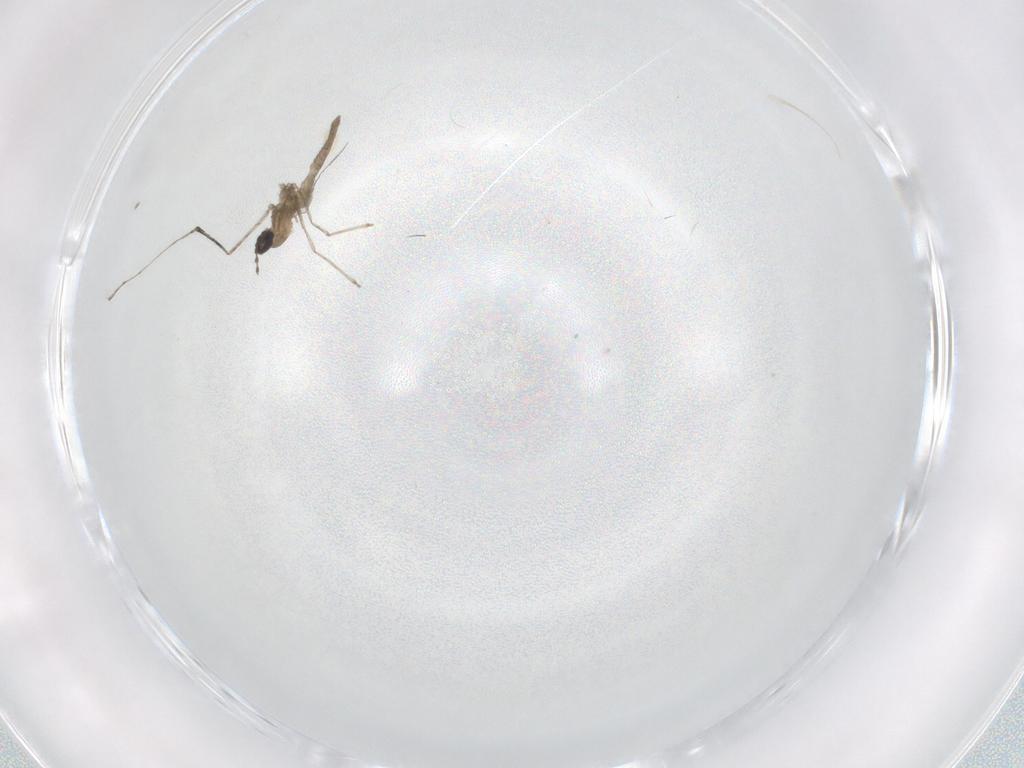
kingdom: Animalia
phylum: Arthropoda
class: Insecta
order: Diptera
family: Cecidomyiidae
